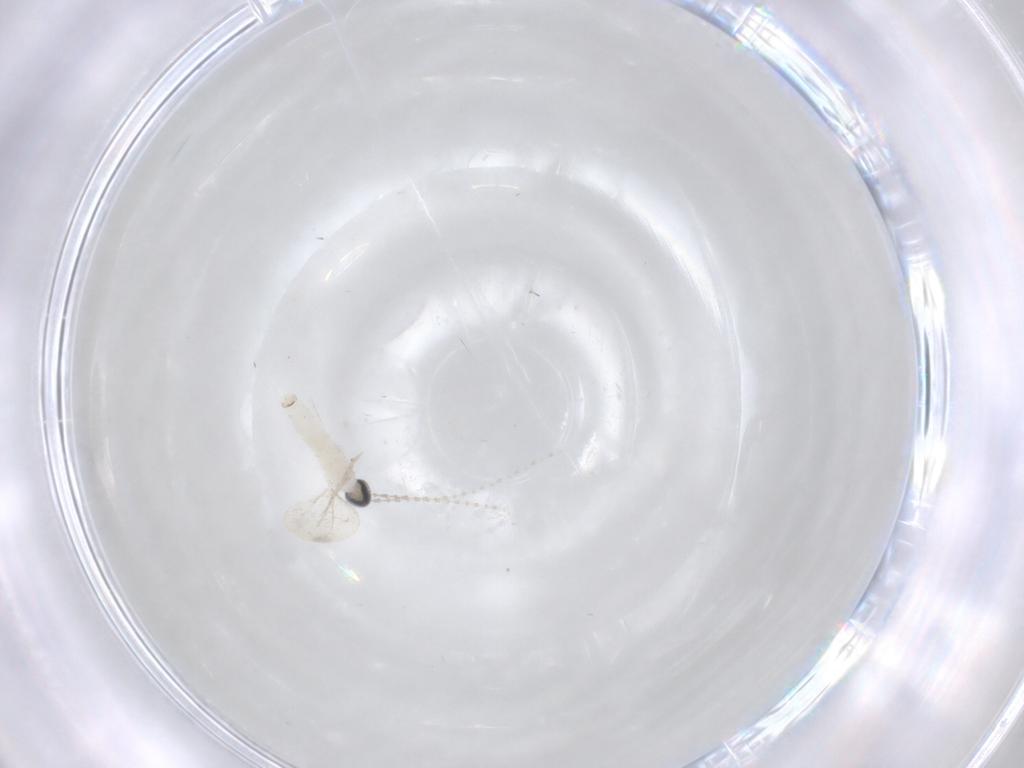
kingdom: Animalia
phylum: Arthropoda
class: Insecta
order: Diptera
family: Cecidomyiidae
